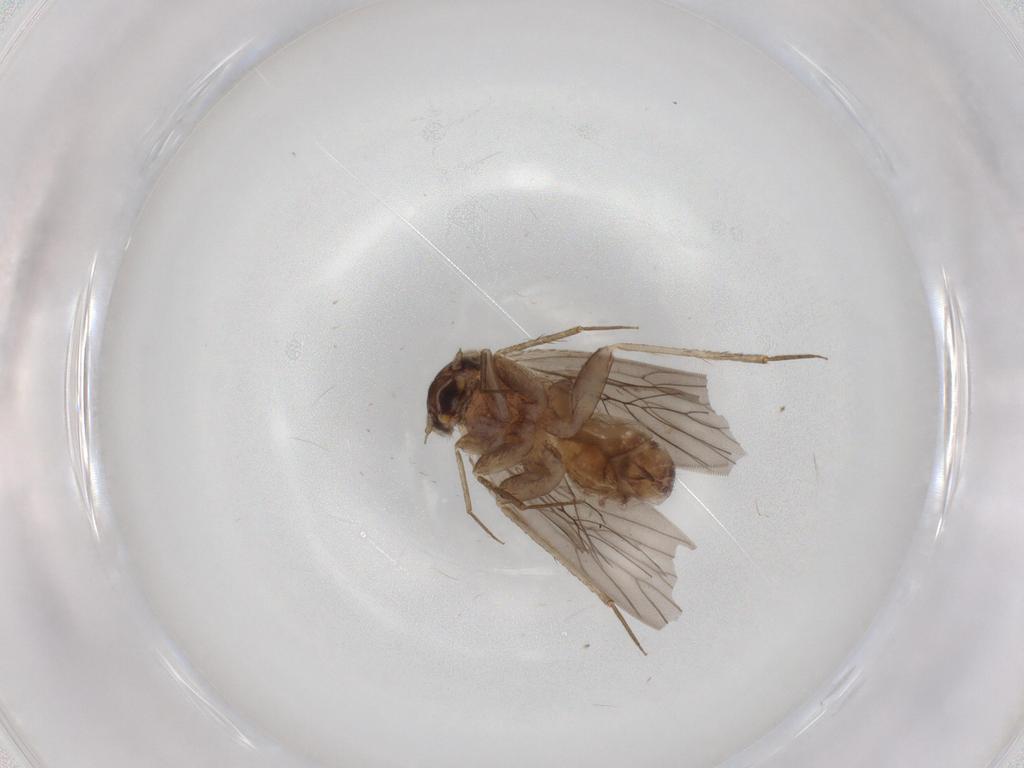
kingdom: Animalia
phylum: Arthropoda
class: Insecta
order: Psocodea
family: Lepidopsocidae
